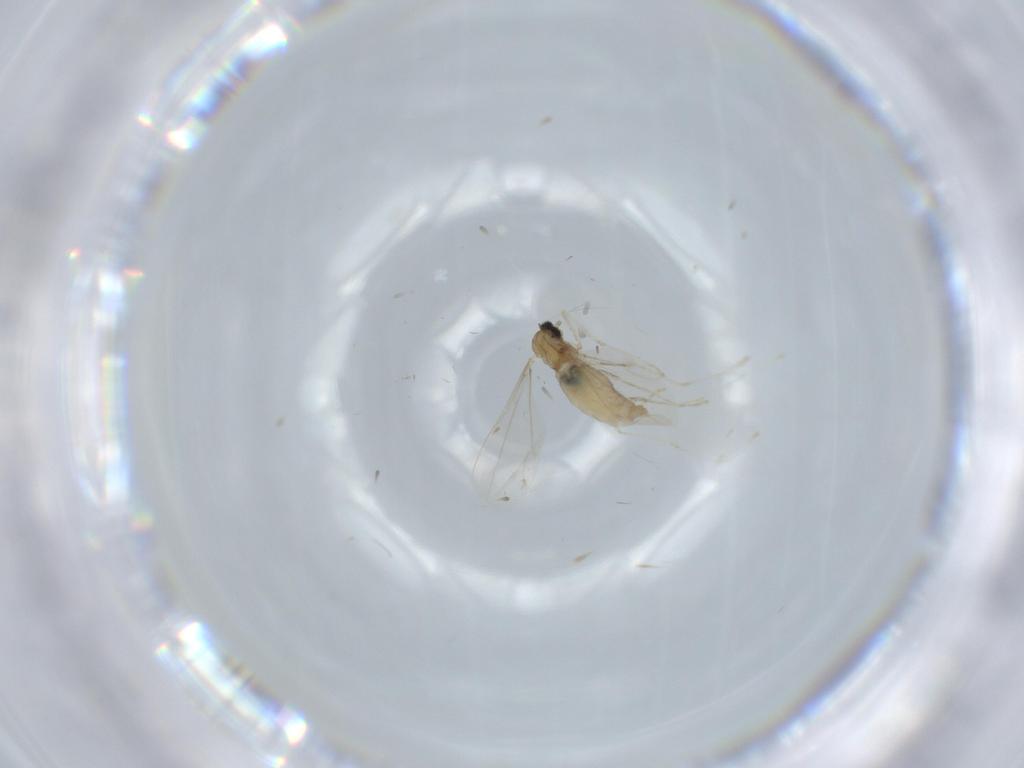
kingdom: Animalia
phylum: Arthropoda
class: Insecta
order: Diptera
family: Cecidomyiidae
